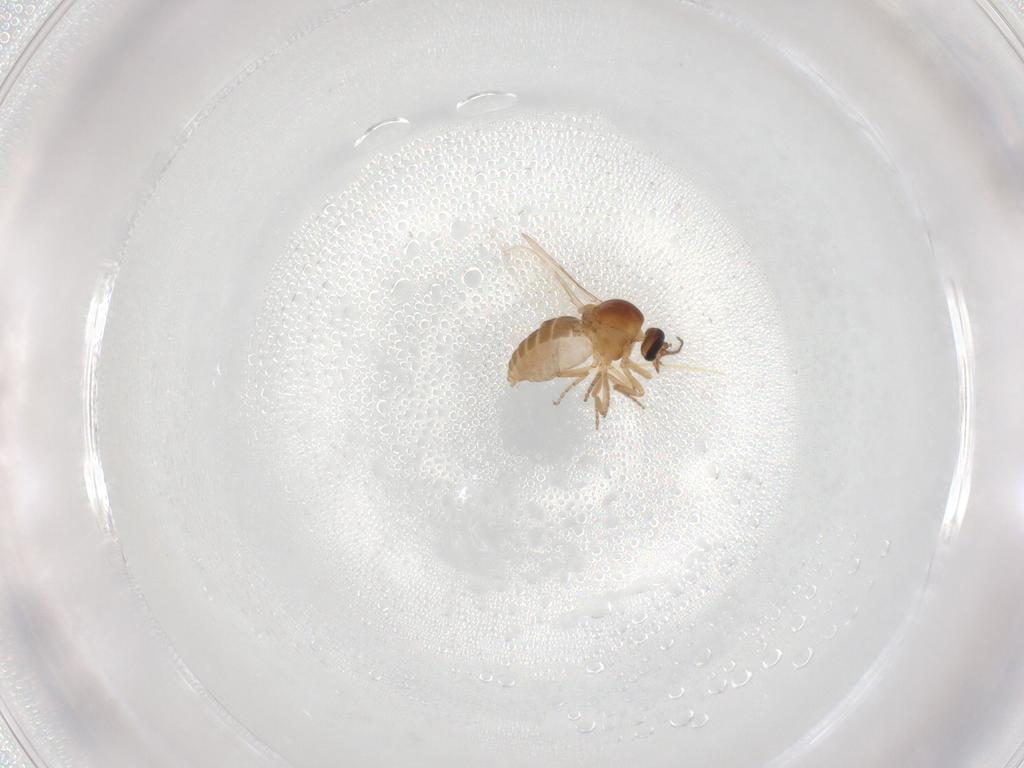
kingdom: Animalia
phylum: Arthropoda
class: Insecta
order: Diptera
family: Ceratopogonidae
